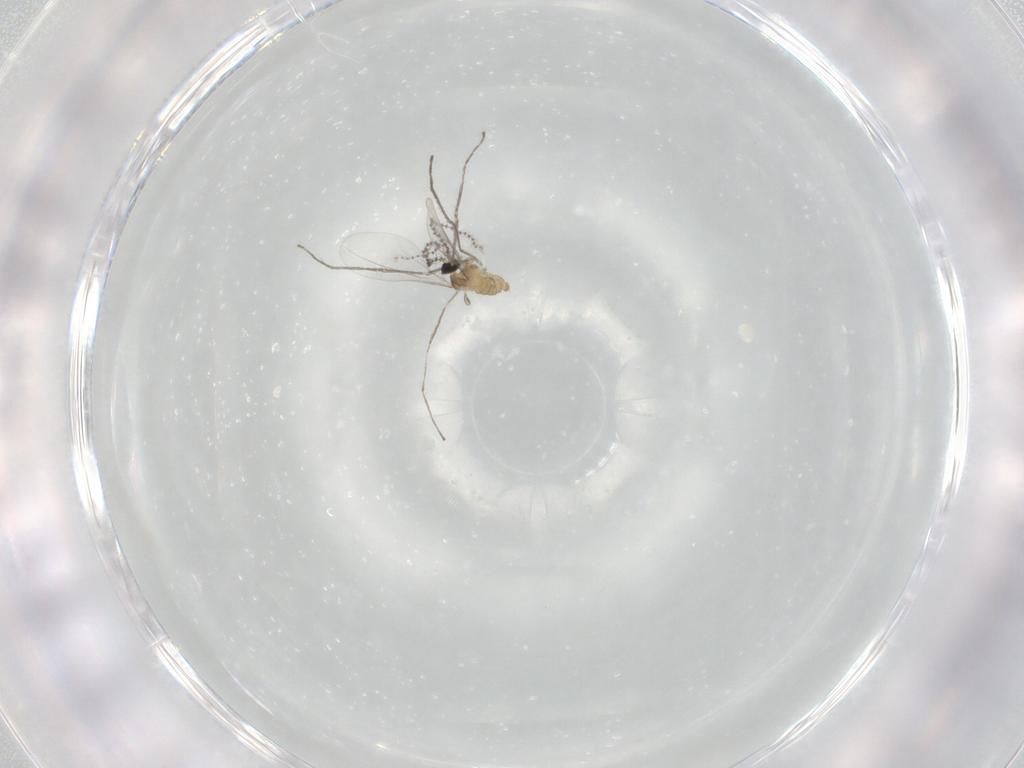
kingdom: Animalia
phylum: Arthropoda
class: Insecta
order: Diptera
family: Cecidomyiidae
